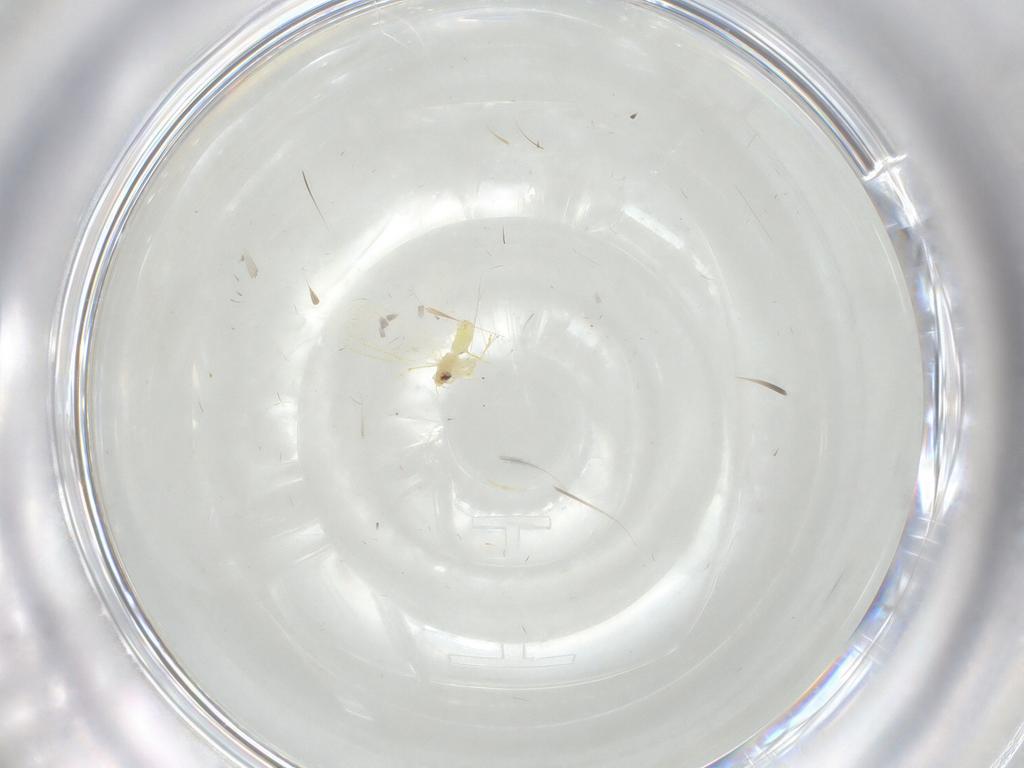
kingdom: Animalia
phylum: Arthropoda
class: Insecta
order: Hemiptera
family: Aleyrodidae
